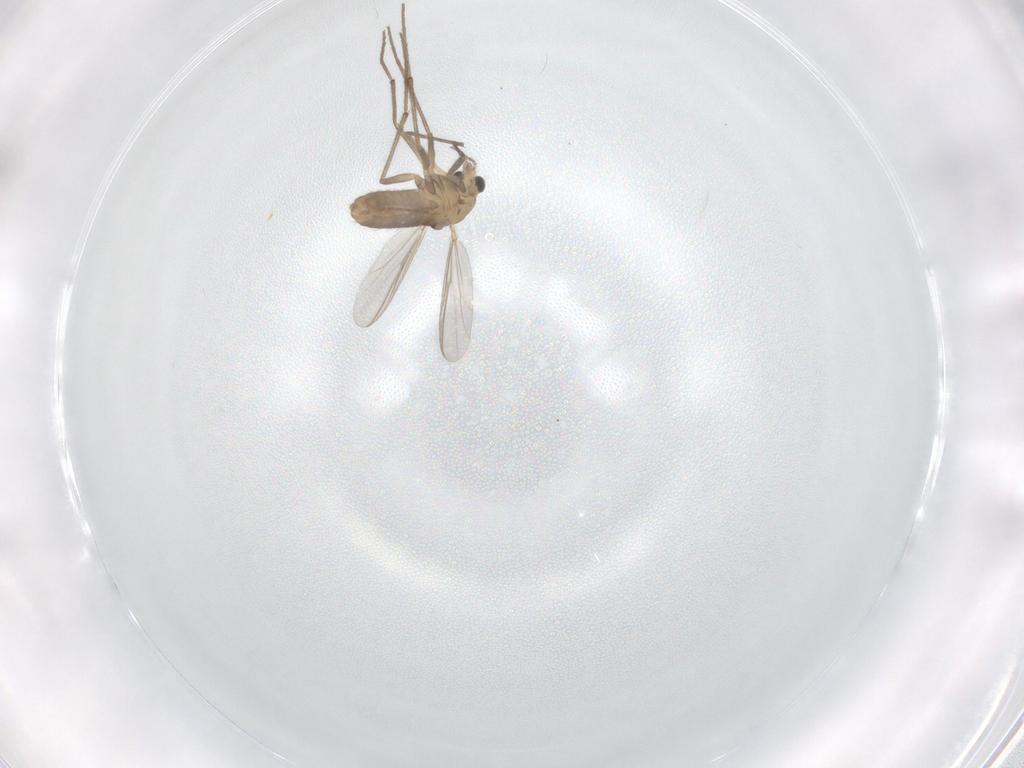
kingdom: Animalia
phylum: Arthropoda
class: Insecta
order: Diptera
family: Chironomidae
